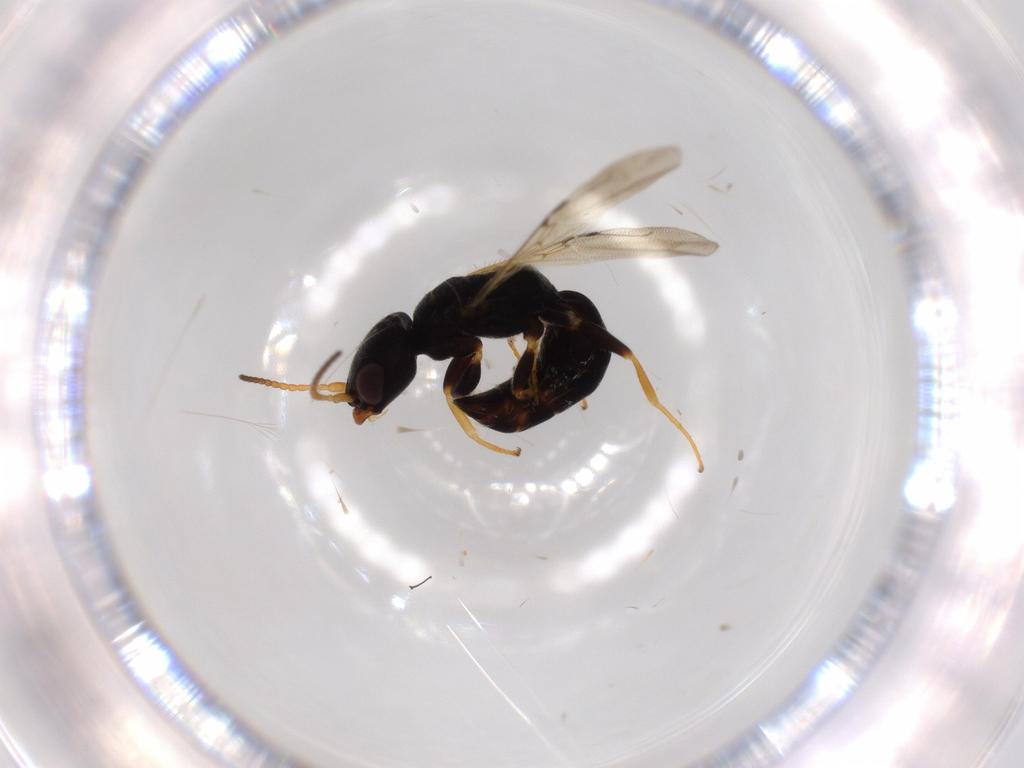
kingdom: Animalia
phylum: Arthropoda
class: Insecta
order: Hymenoptera
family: Bethylidae
